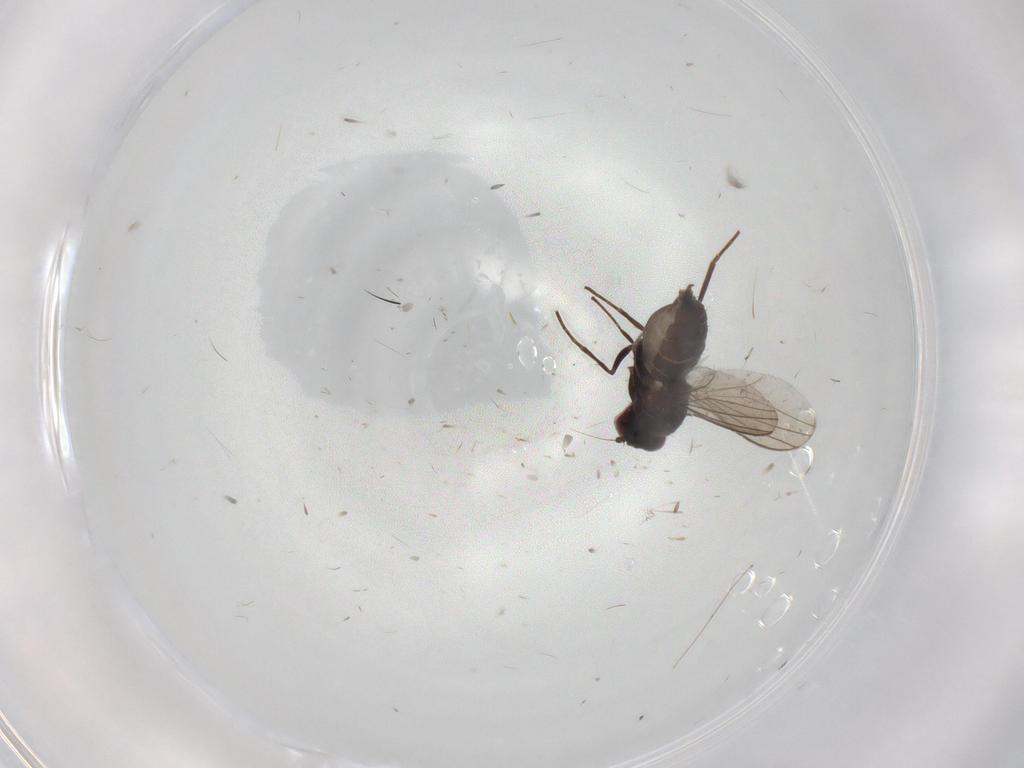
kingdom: Animalia
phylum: Arthropoda
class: Insecta
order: Diptera
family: Dolichopodidae
